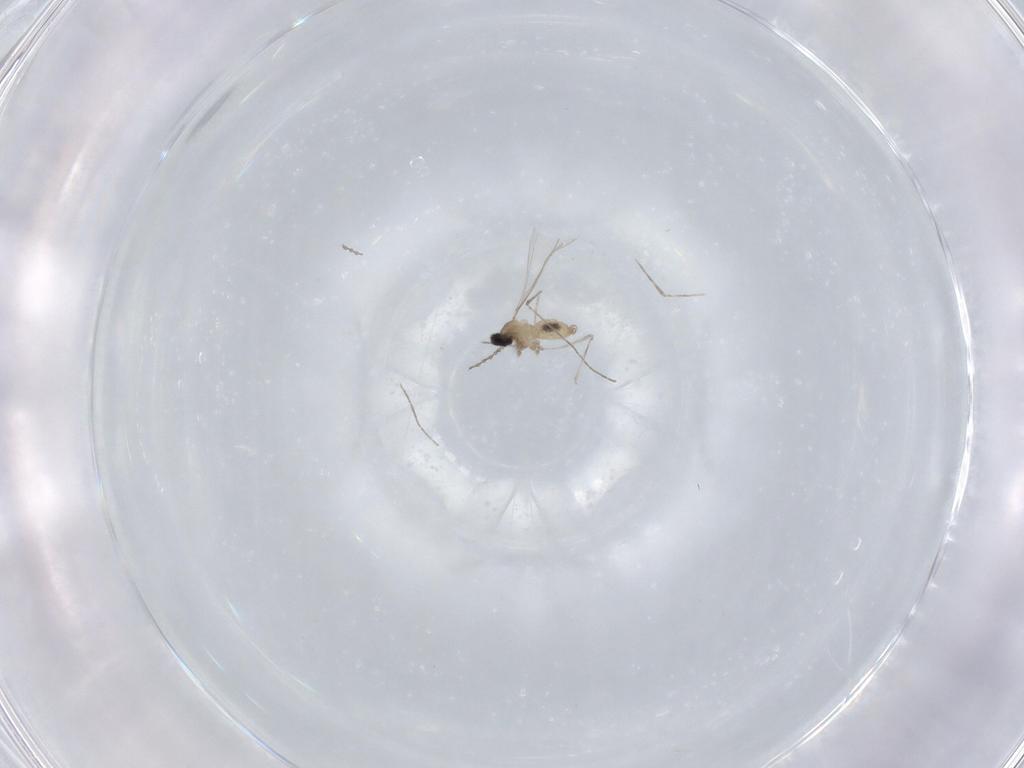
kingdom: Animalia
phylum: Arthropoda
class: Insecta
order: Diptera
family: Cecidomyiidae
